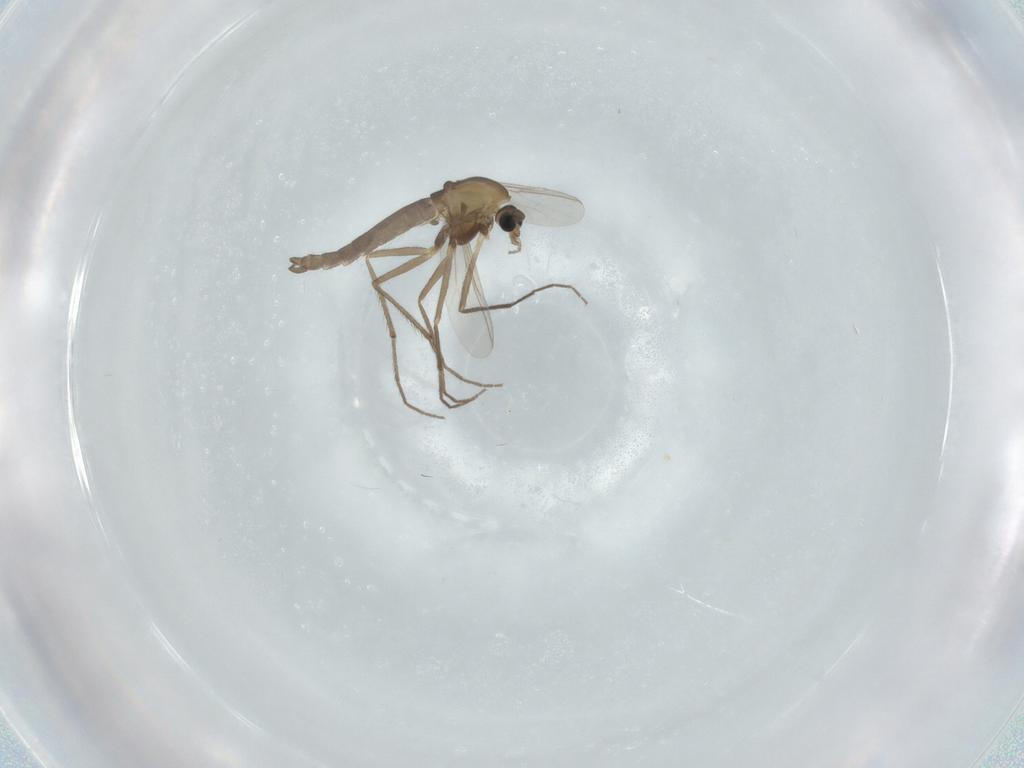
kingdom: Animalia
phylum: Arthropoda
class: Insecta
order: Diptera
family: Chironomidae
